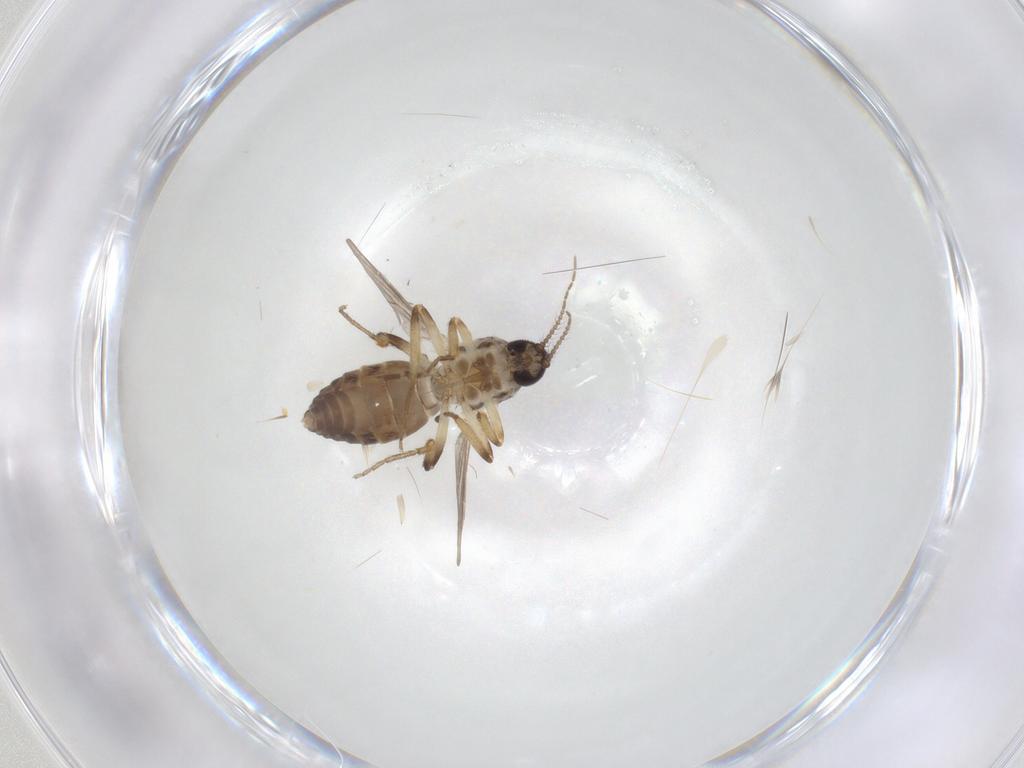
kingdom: Animalia
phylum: Arthropoda
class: Insecta
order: Diptera
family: Ceratopogonidae
